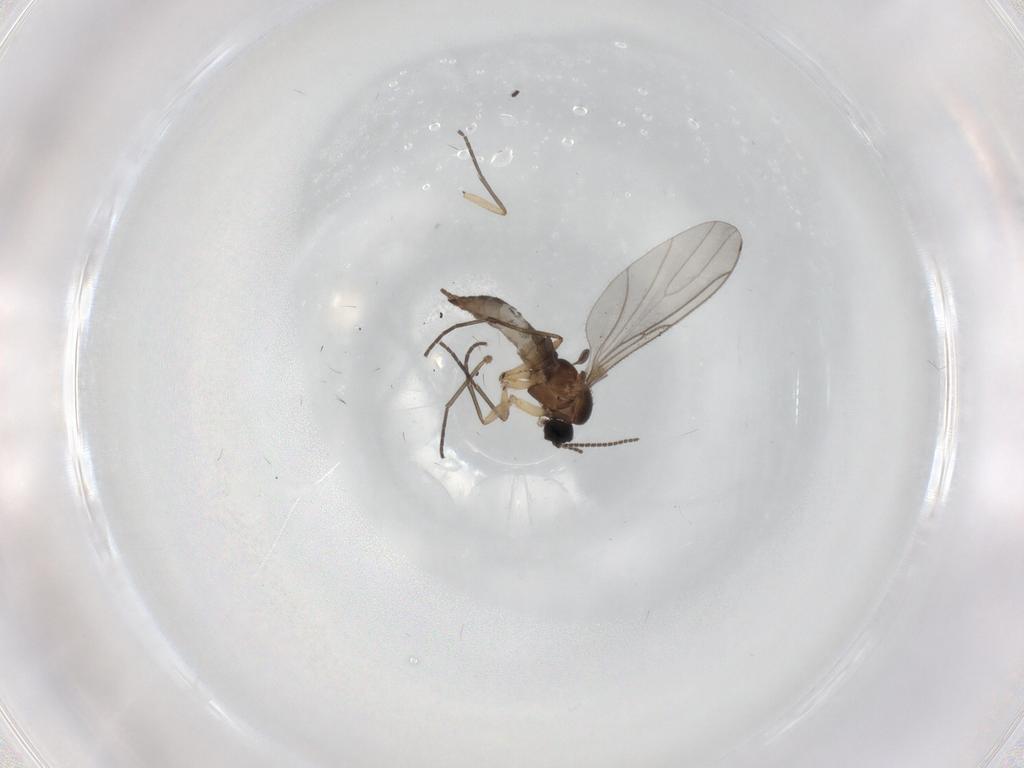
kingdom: Animalia
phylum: Arthropoda
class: Insecta
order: Diptera
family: Sciaridae
